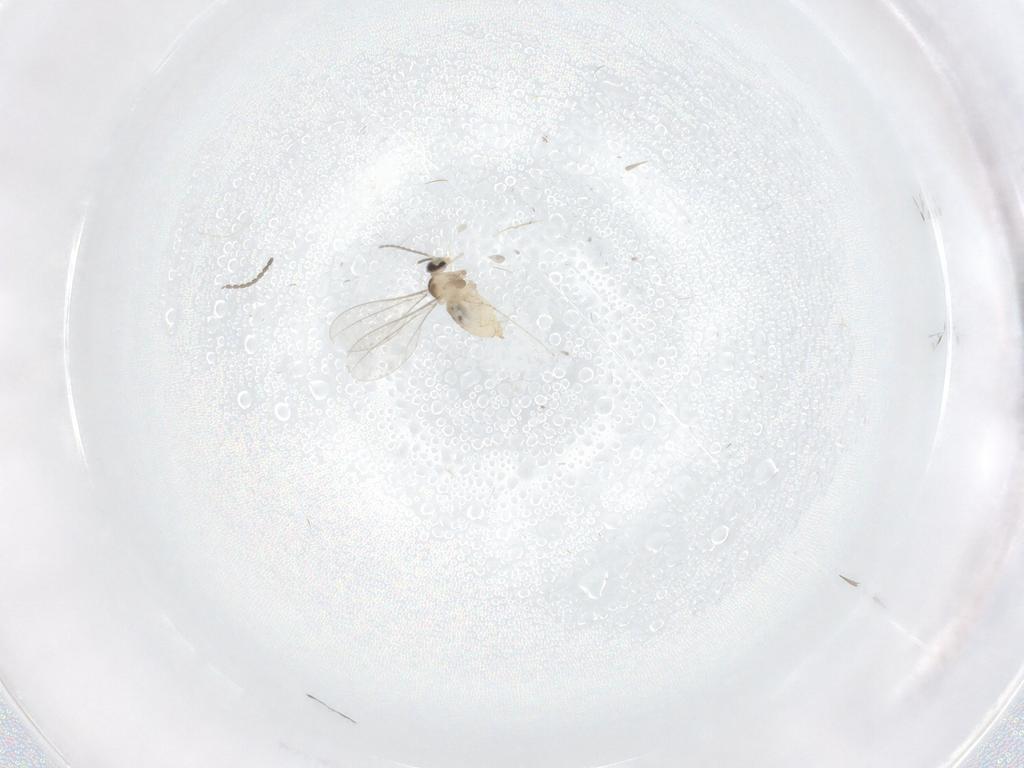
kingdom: Animalia
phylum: Arthropoda
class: Insecta
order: Diptera
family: Cecidomyiidae
